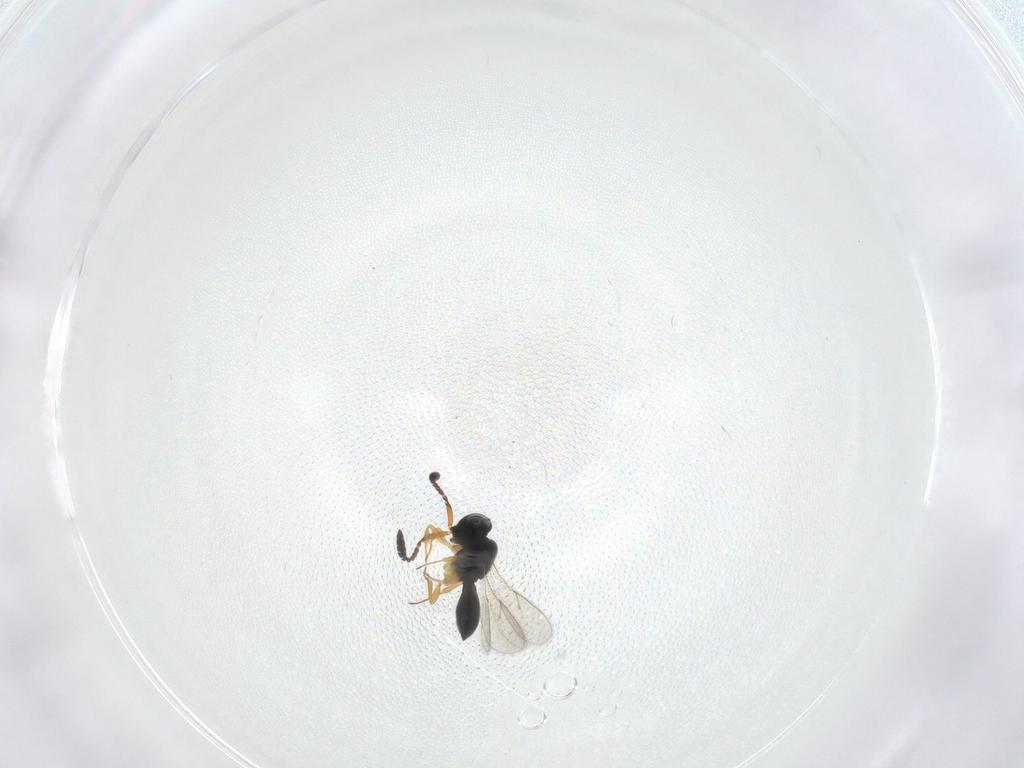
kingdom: Animalia
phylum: Arthropoda
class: Insecta
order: Hymenoptera
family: Scelionidae
